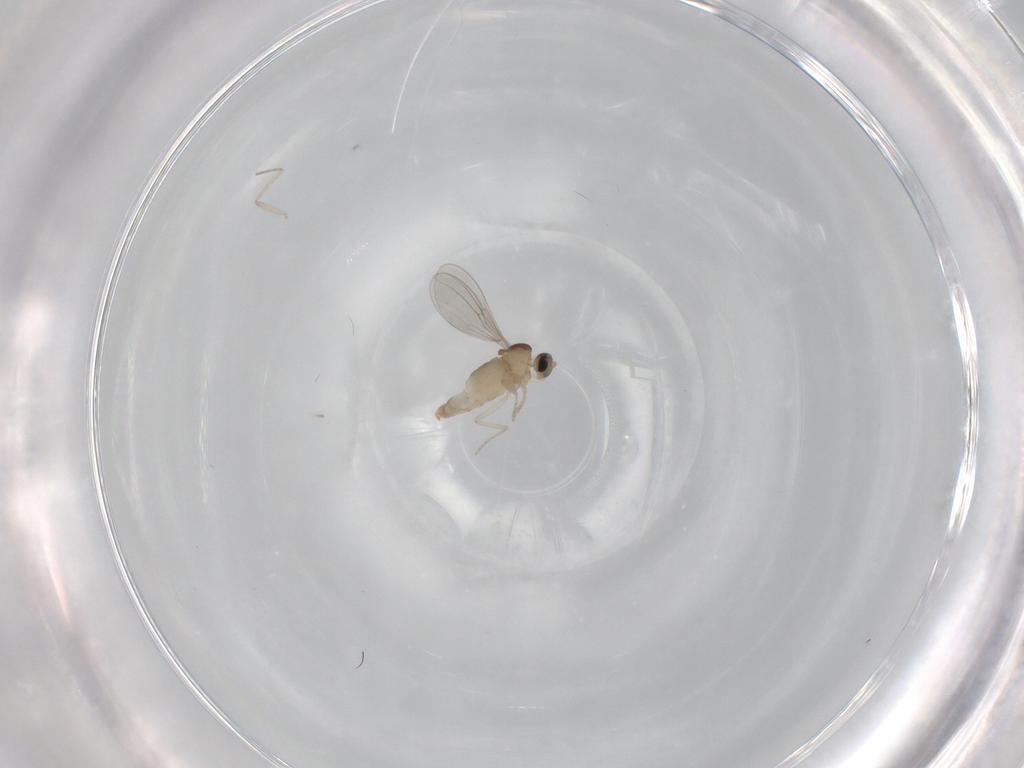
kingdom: Animalia
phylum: Arthropoda
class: Insecta
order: Diptera
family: Cecidomyiidae
